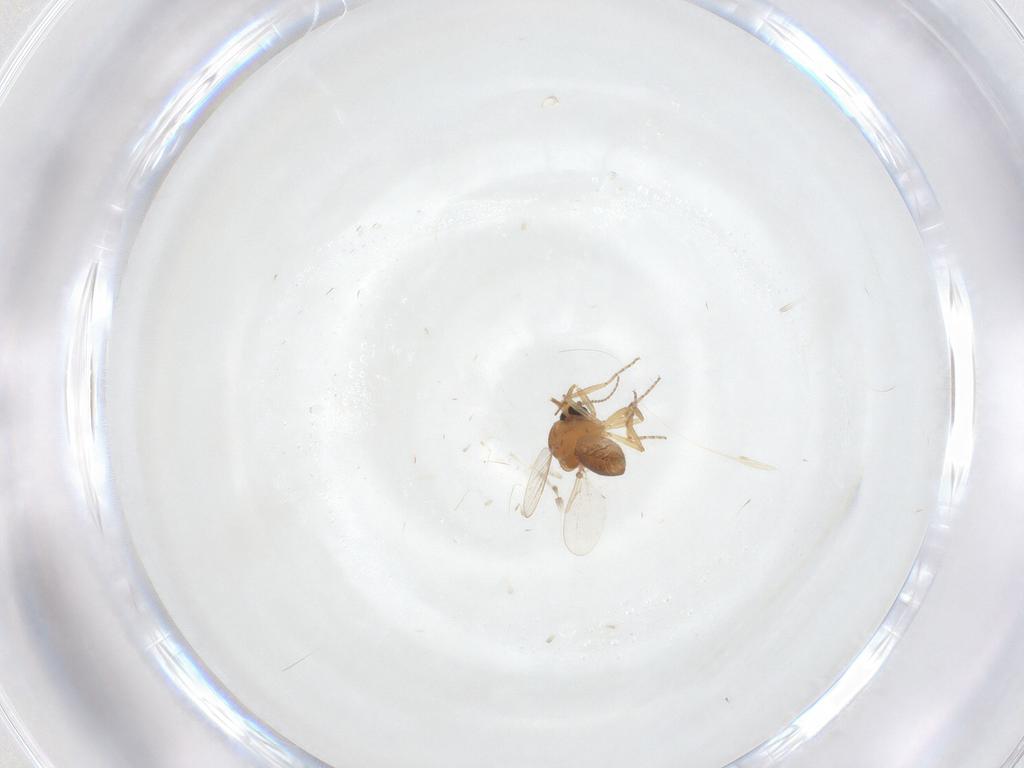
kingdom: Animalia
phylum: Arthropoda
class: Insecta
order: Diptera
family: Ceratopogonidae
